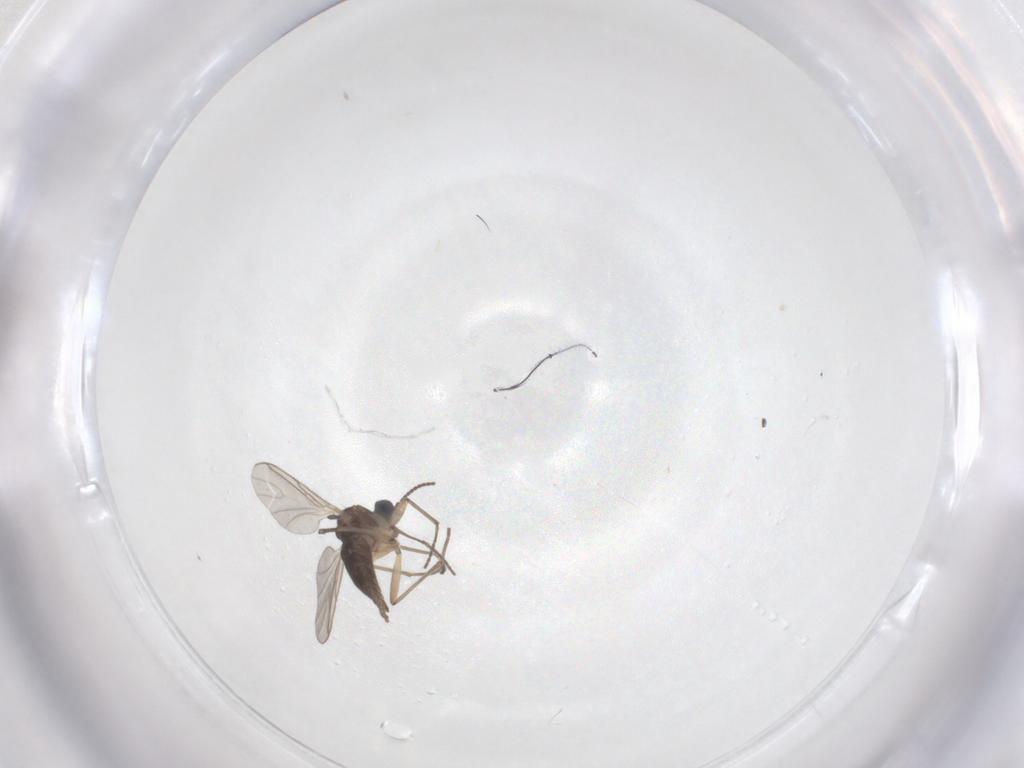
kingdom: Animalia
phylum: Arthropoda
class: Insecta
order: Diptera
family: Sciaridae
